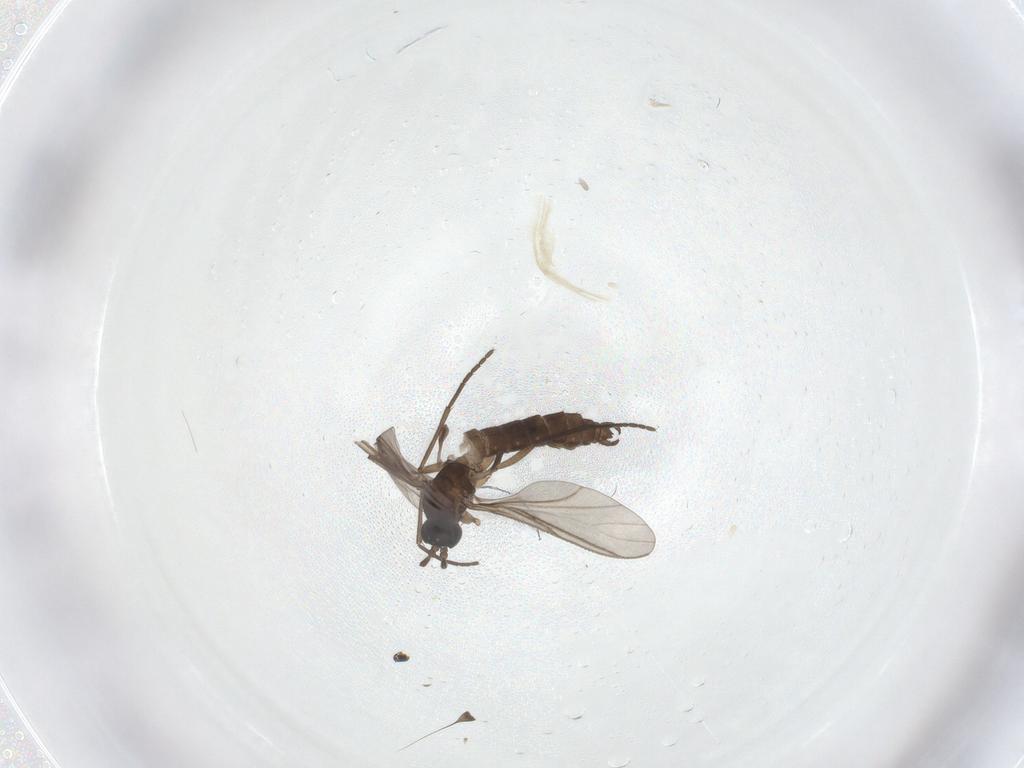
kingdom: Animalia
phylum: Arthropoda
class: Insecta
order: Diptera
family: Sciaridae
